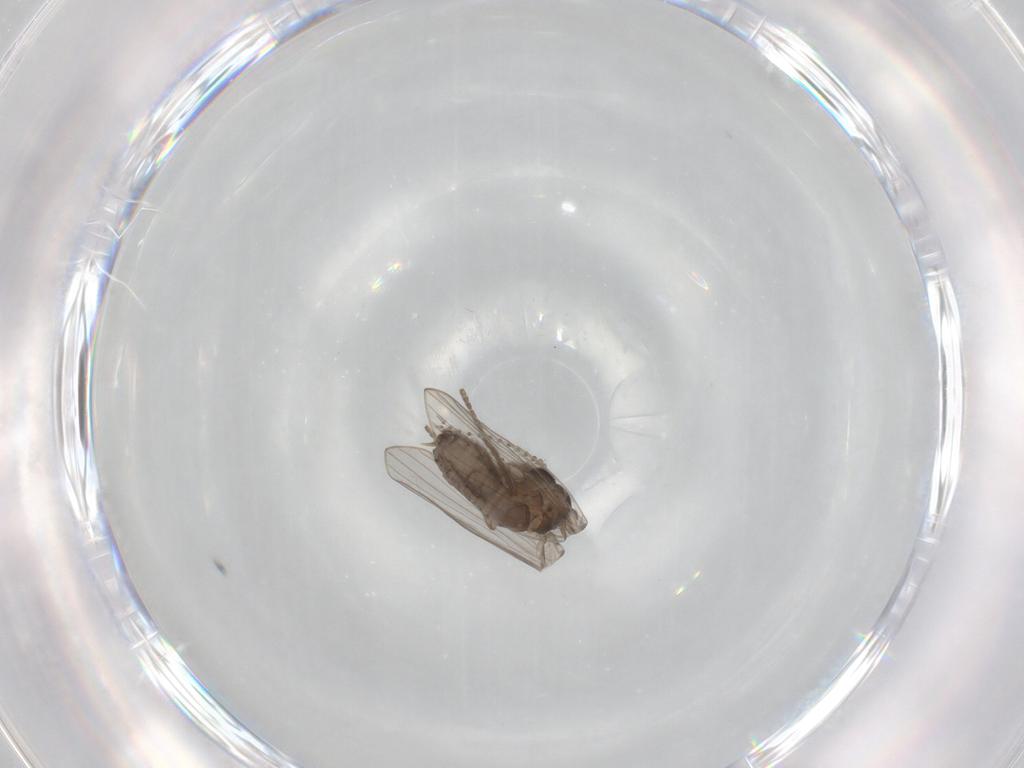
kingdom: Animalia
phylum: Arthropoda
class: Insecta
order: Diptera
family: Psychodidae
